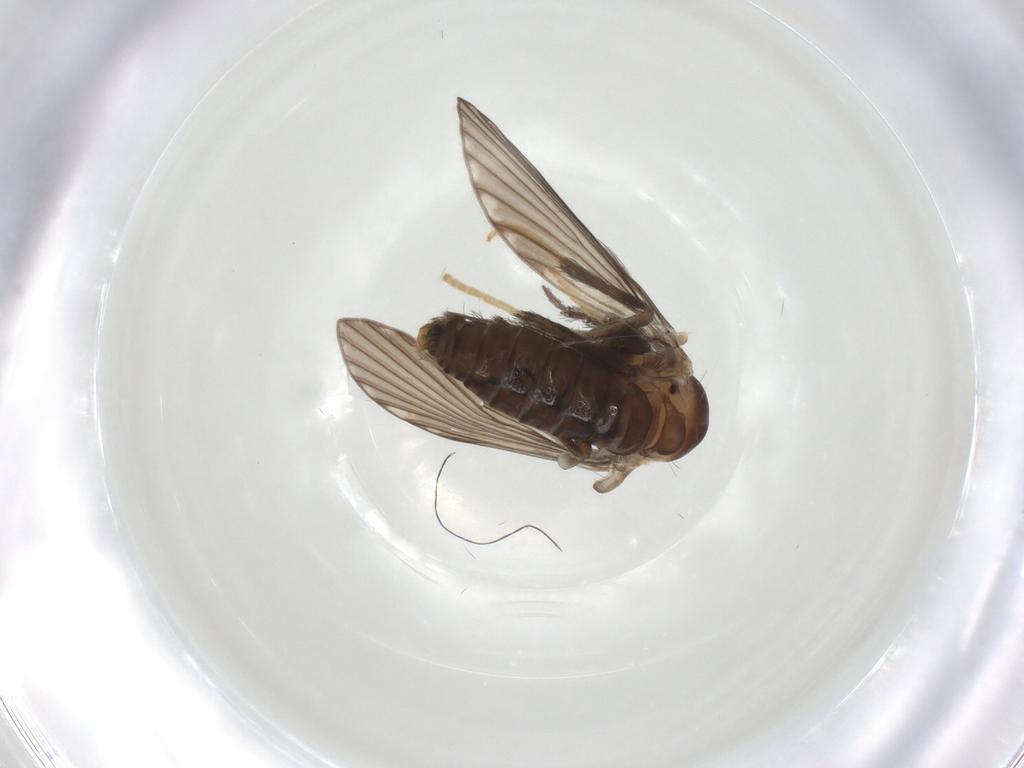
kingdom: Animalia
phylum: Arthropoda
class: Insecta
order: Diptera
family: Psychodidae
